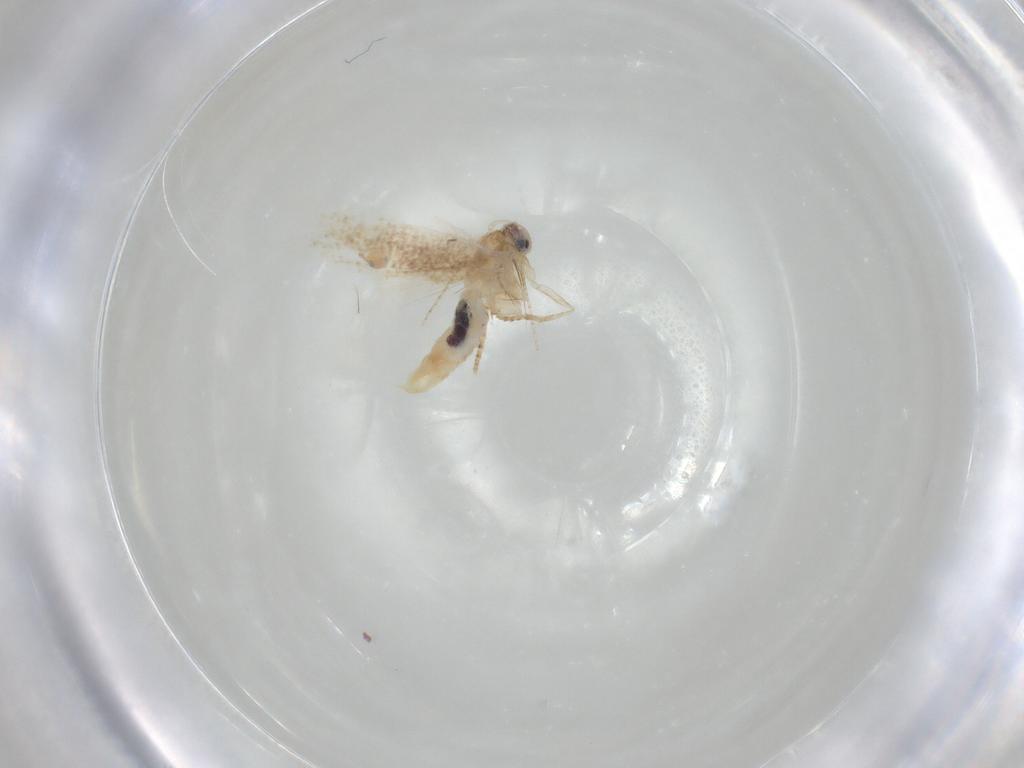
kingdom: Animalia
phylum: Arthropoda
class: Insecta
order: Lepidoptera
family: Bucculatricidae
